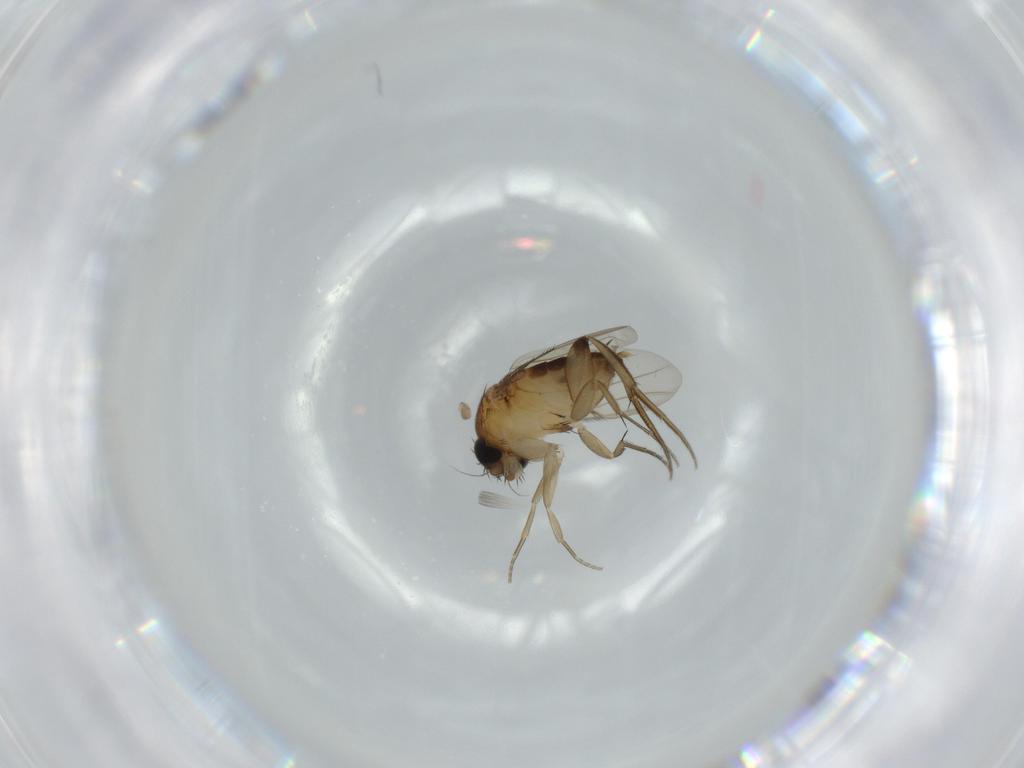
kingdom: Animalia
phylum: Arthropoda
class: Insecta
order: Diptera
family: Phoridae
